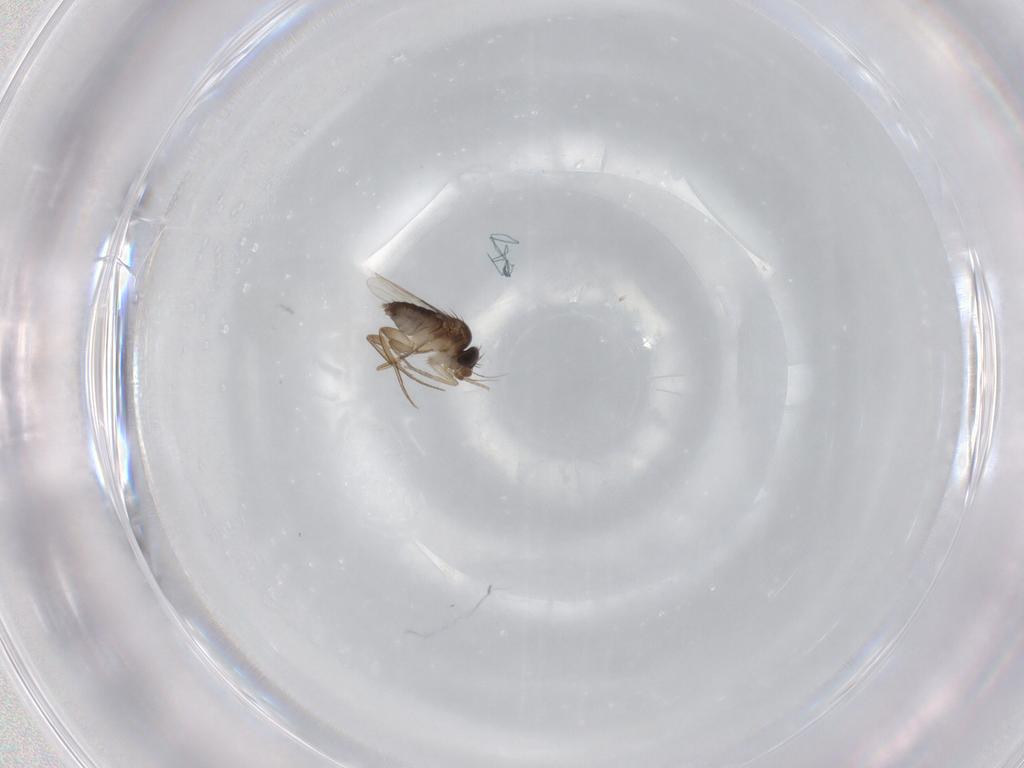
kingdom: Animalia
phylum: Arthropoda
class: Insecta
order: Diptera
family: Phoridae
